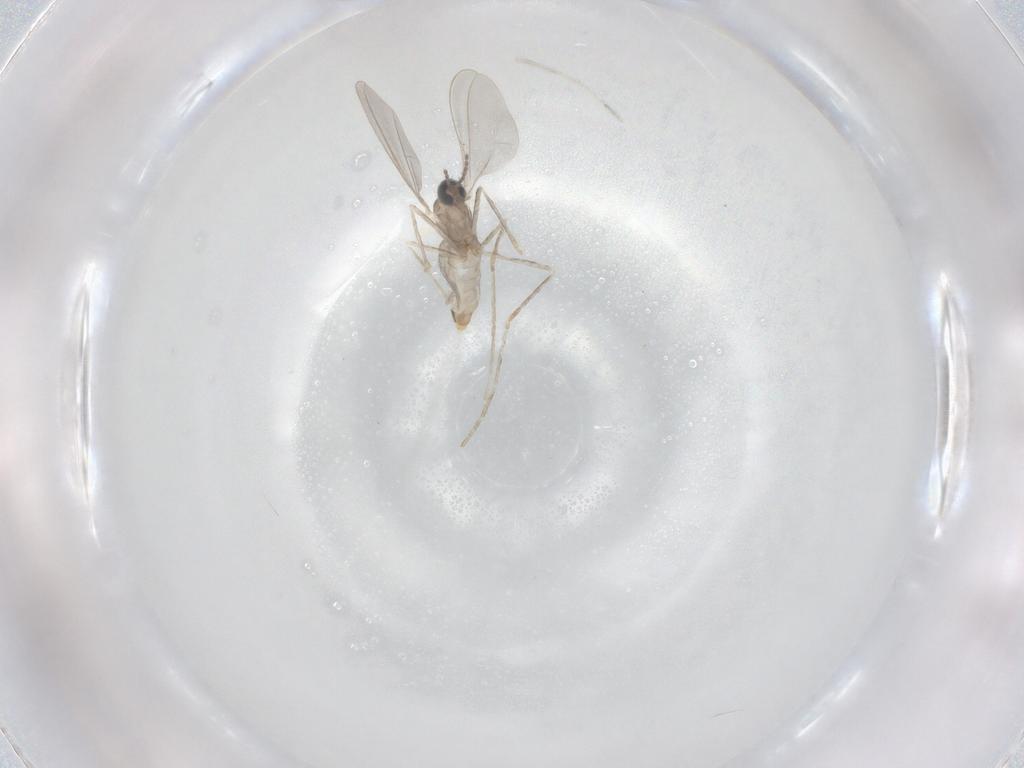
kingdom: Animalia
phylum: Arthropoda
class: Insecta
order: Diptera
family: Cecidomyiidae
